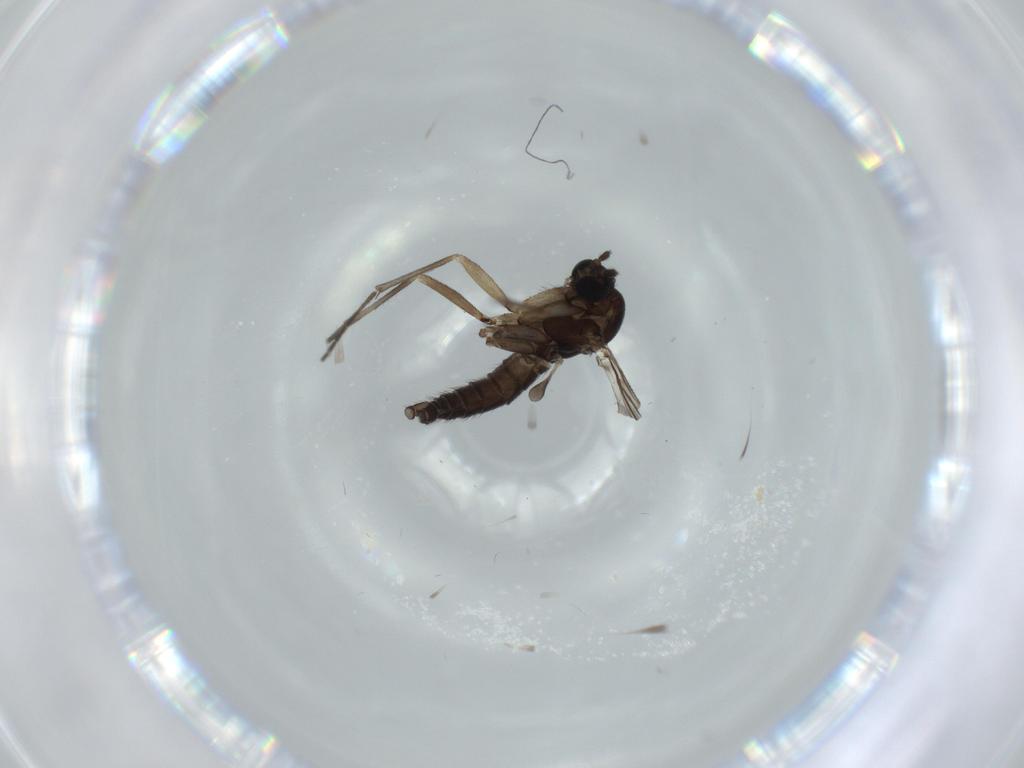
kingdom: Animalia
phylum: Arthropoda
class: Insecta
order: Diptera
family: Sciaridae
